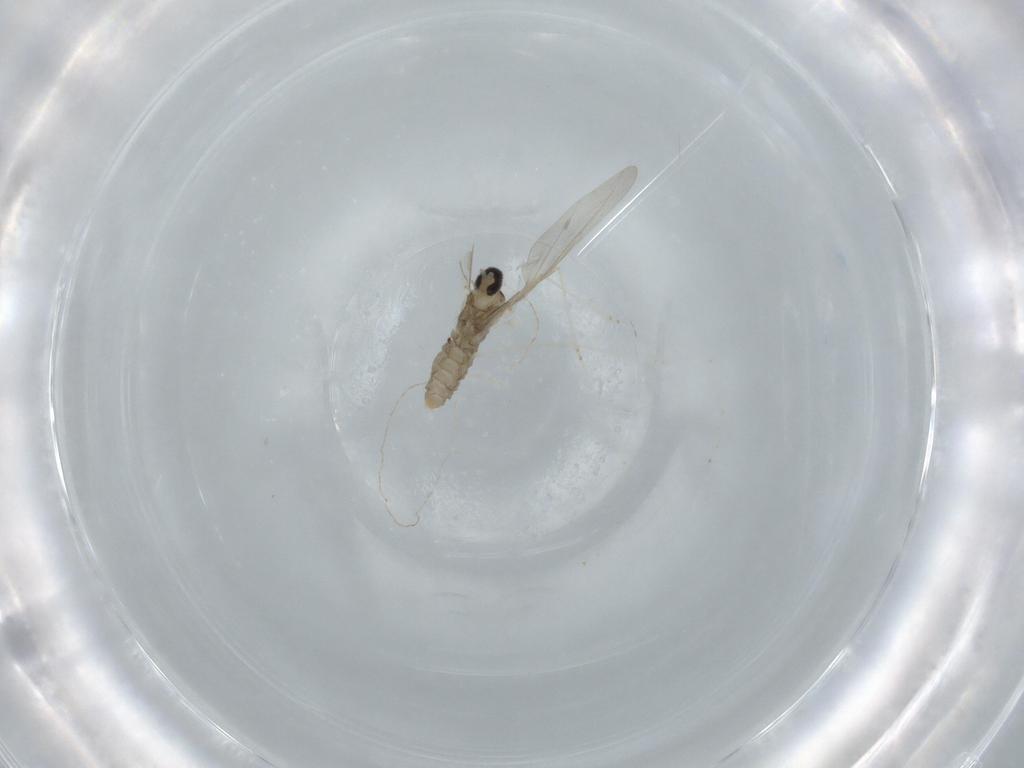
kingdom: Animalia
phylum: Arthropoda
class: Insecta
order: Diptera
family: Cecidomyiidae
